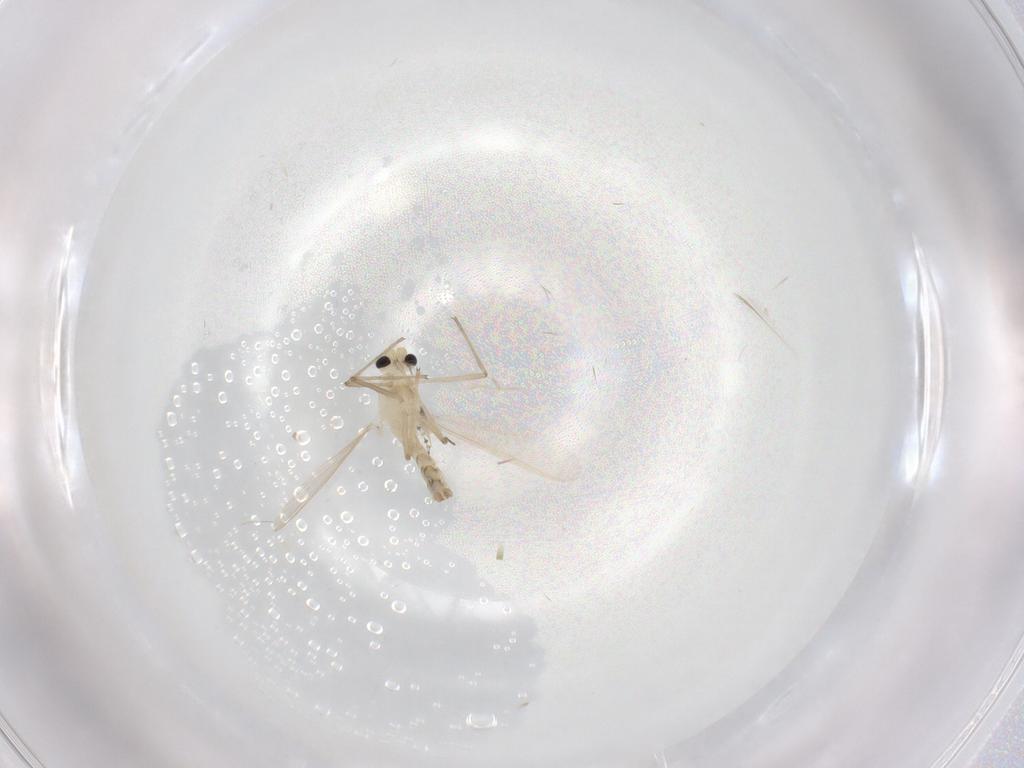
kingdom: Animalia
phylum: Arthropoda
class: Insecta
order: Diptera
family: Chironomidae
